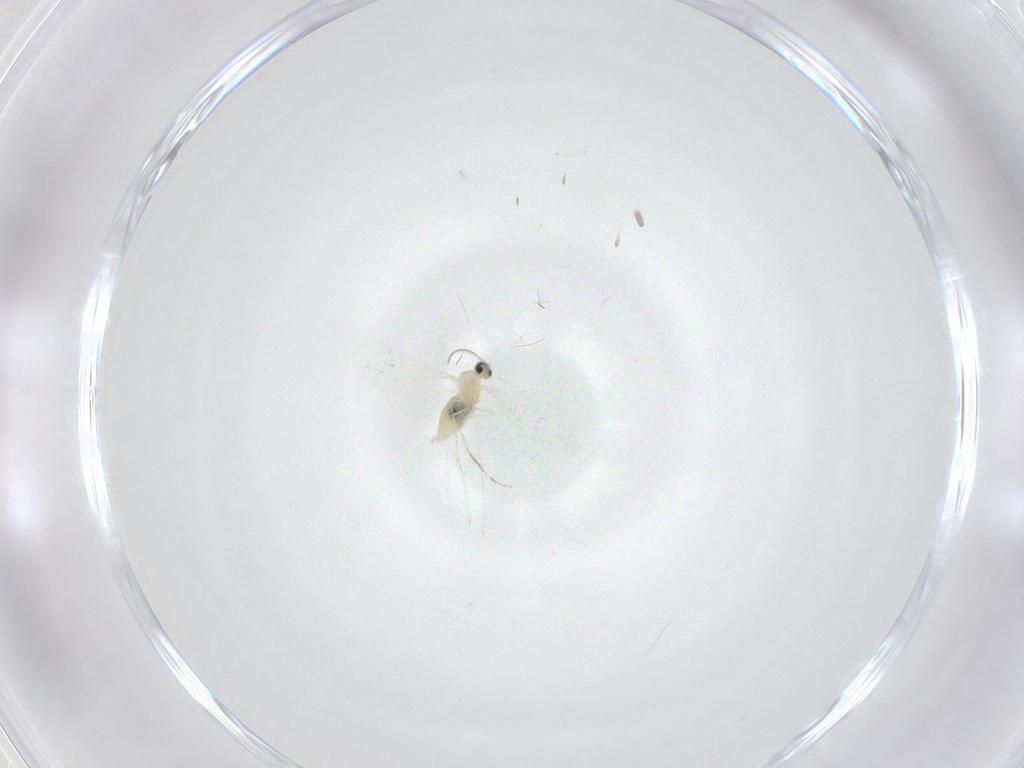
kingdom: Animalia
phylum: Arthropoda
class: Insecta
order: Diptera
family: Cecidomyiidae
